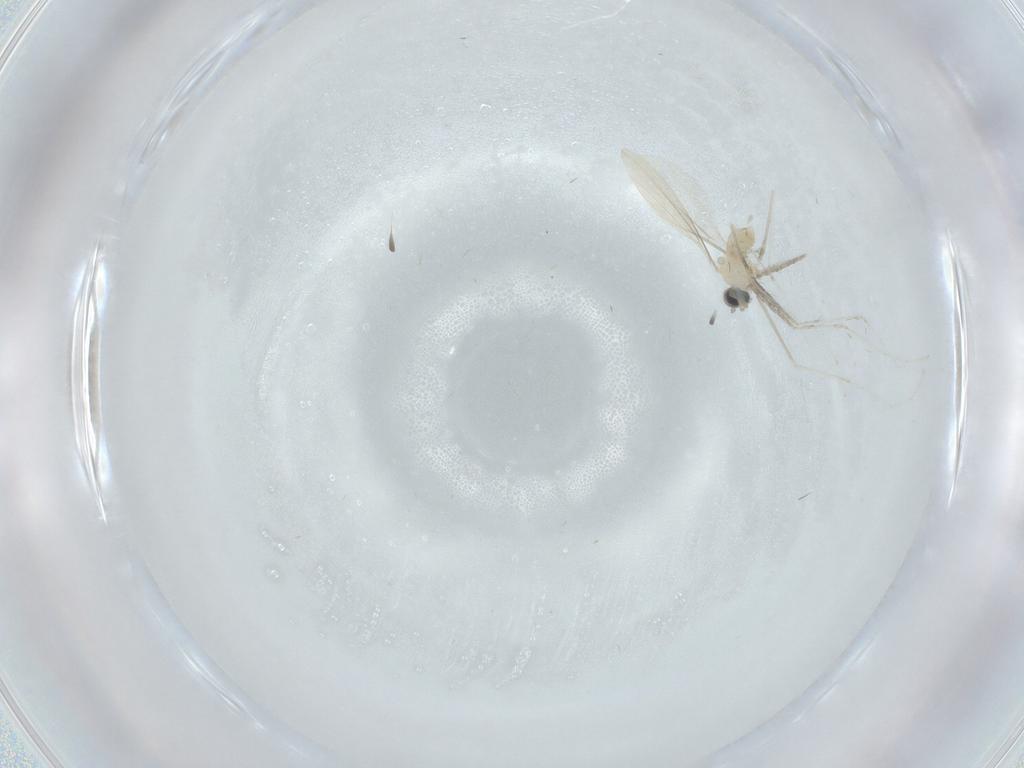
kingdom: Animalia
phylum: Arthropoda
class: Insecta
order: Diptera
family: Cecidomyiidae
